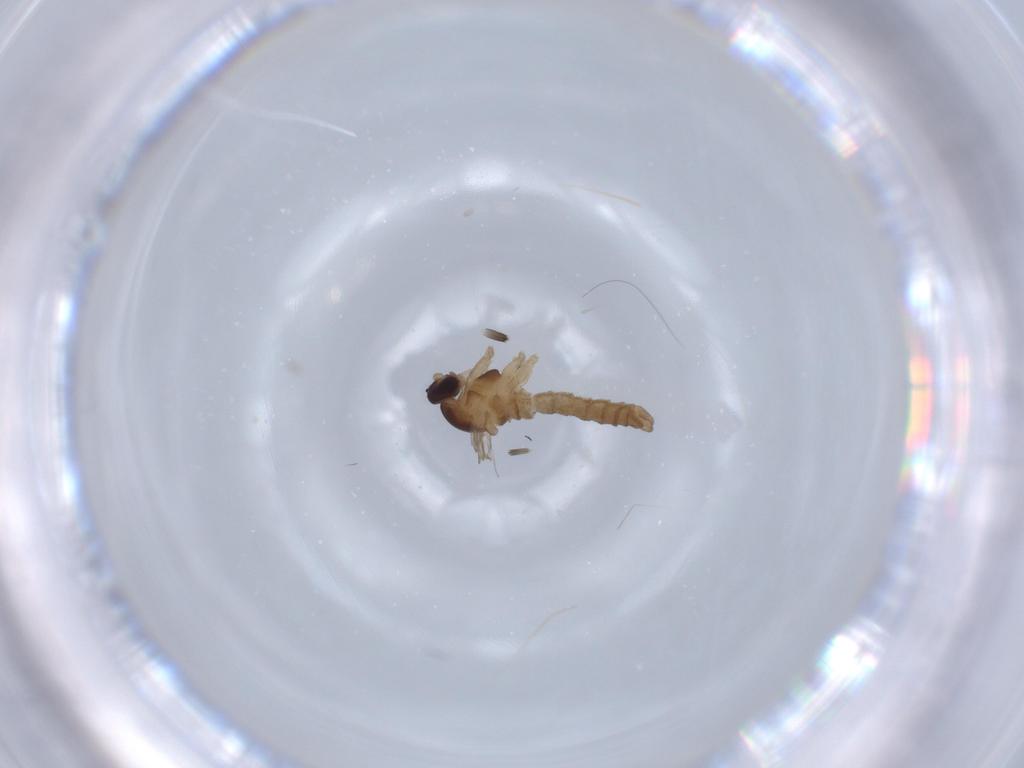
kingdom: Animalia
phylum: Arthropoda
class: Insecta
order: Diptera
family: Cecidomyiidae
